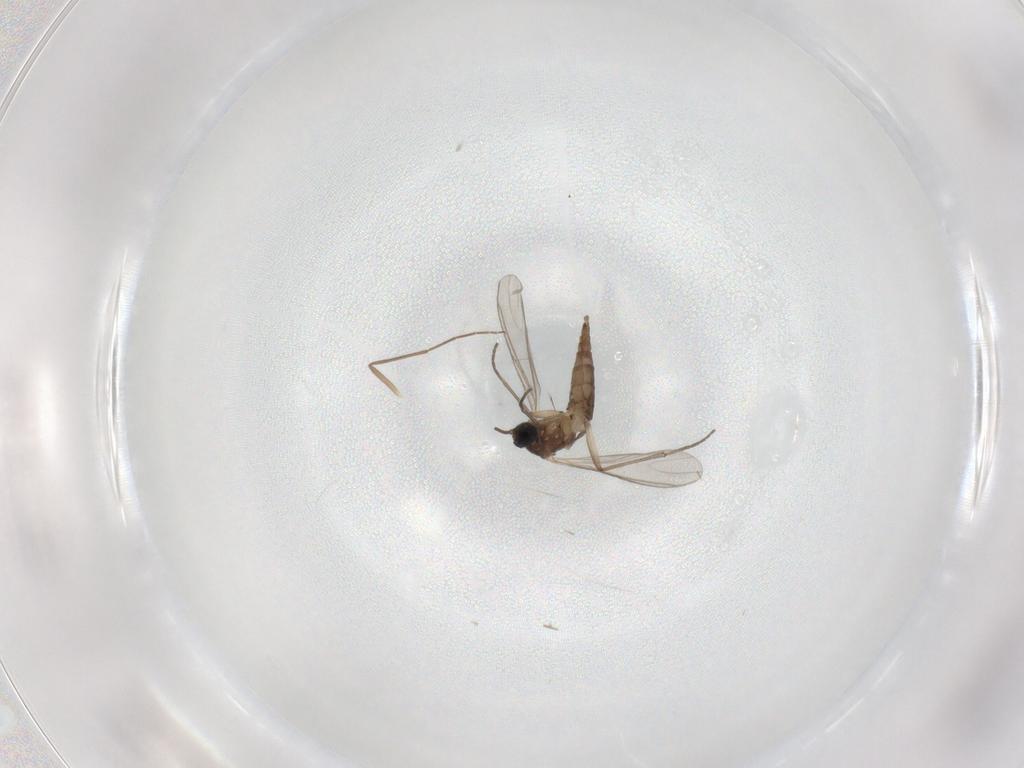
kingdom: Animalia
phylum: Arthropoda
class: Insecta
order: Diptera
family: Sciaridae
